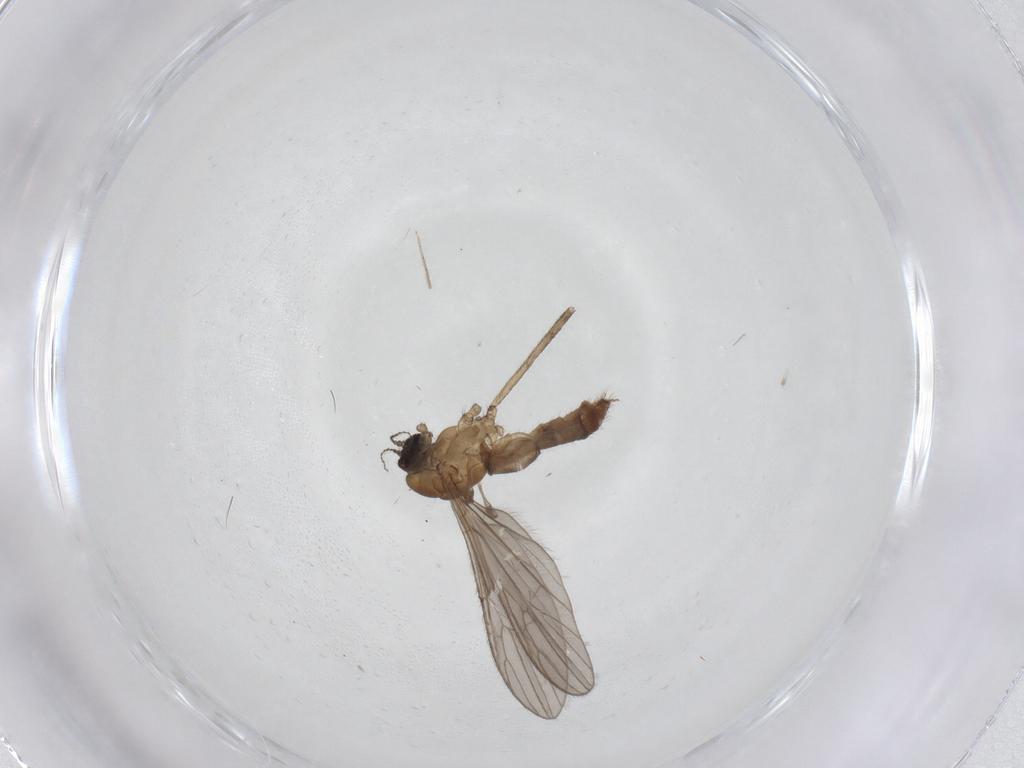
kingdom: Animalia
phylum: Arthropoda
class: Insecta
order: Diptera
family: Limoniidae
